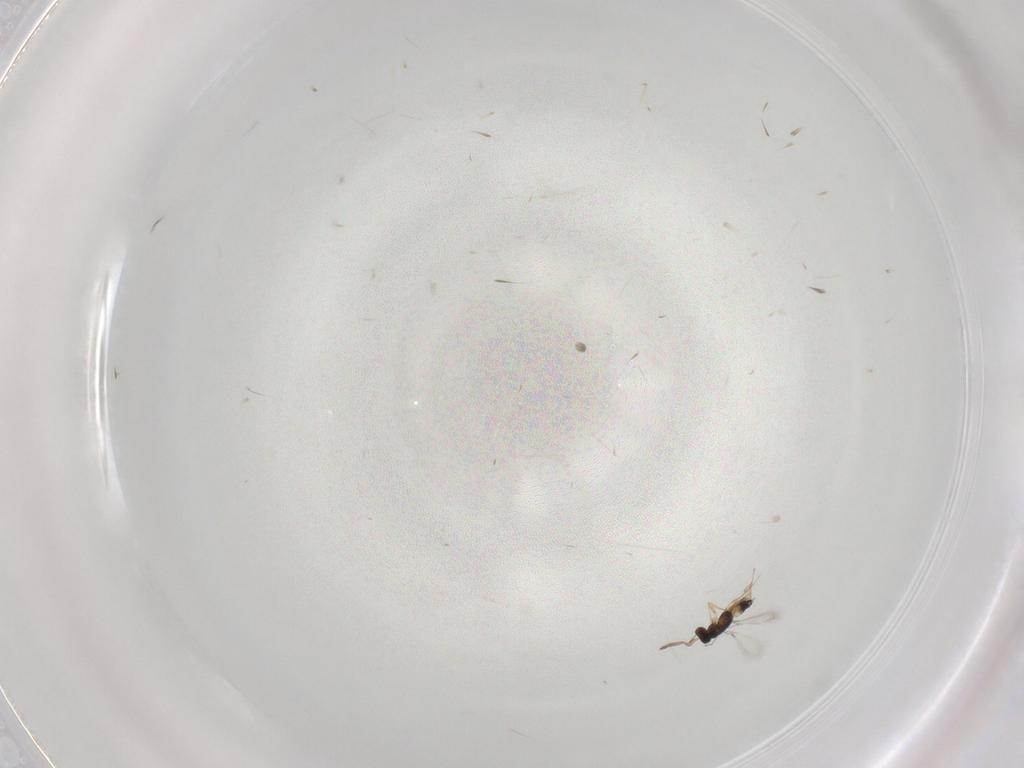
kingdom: Animalia
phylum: Arthropoda
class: Insecta
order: Hymenoptera
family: Mymaridae
